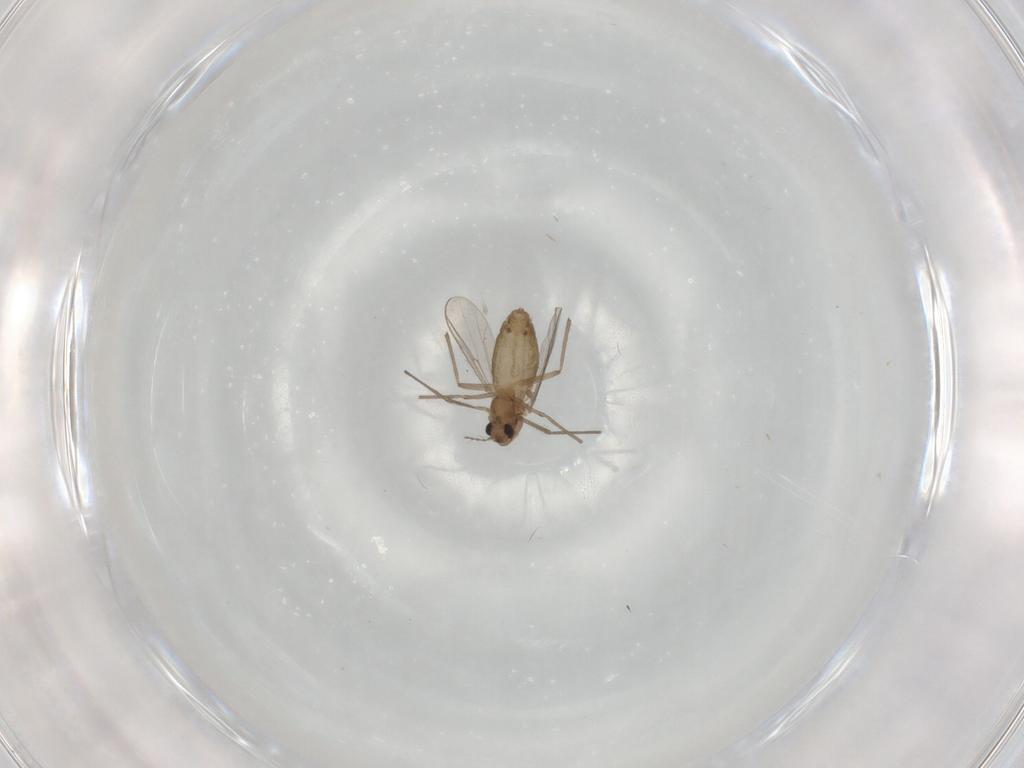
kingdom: Animalia
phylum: Arthropoda
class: Insecta
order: Diptera
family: Chironomidae
